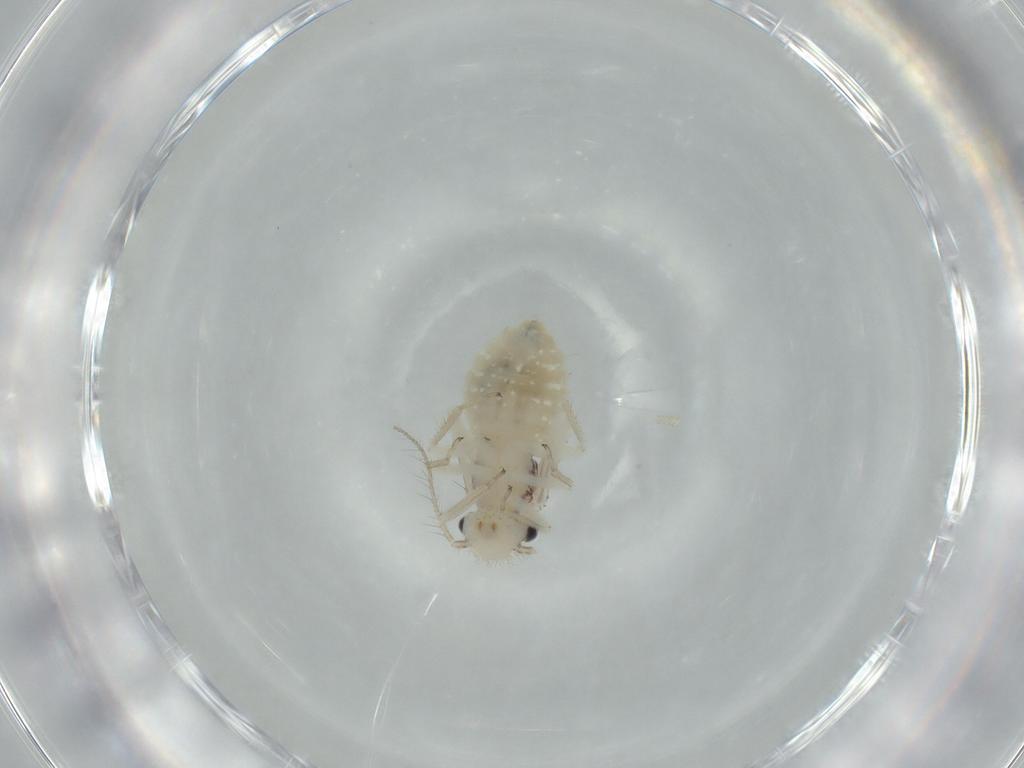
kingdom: Animalia
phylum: Arthropoda
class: Insecta
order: Psocodea
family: Pseudocaeciliidae
